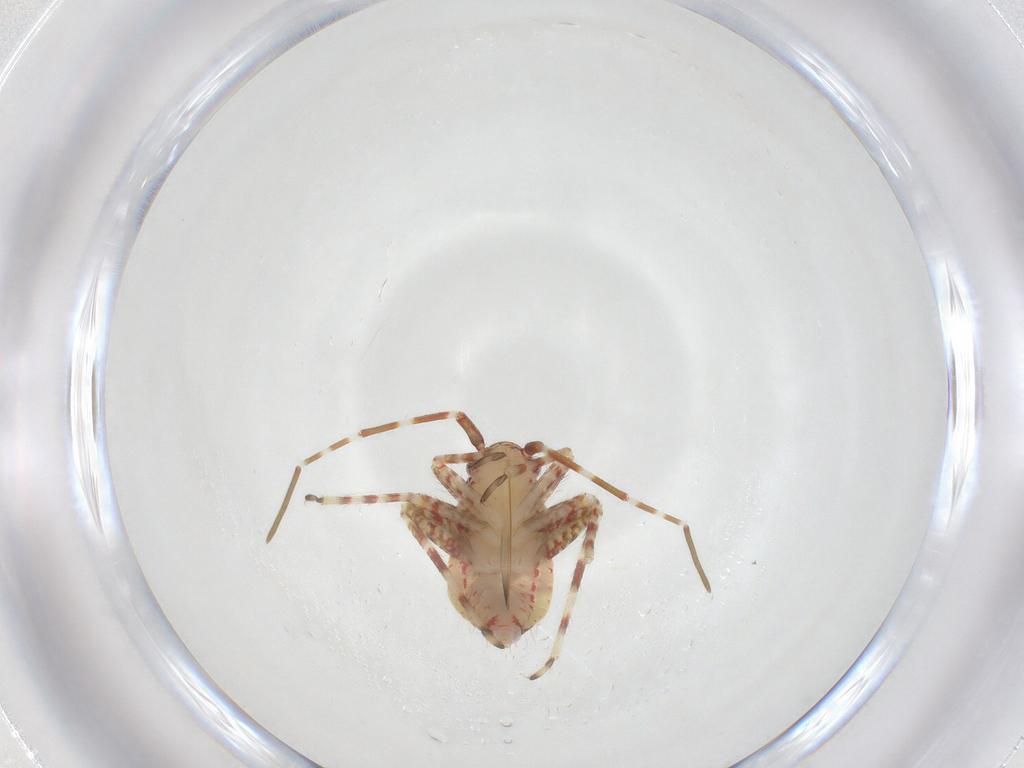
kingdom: Animalia
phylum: Arthropoda
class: Insecta
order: Hemiptera
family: Miridae
